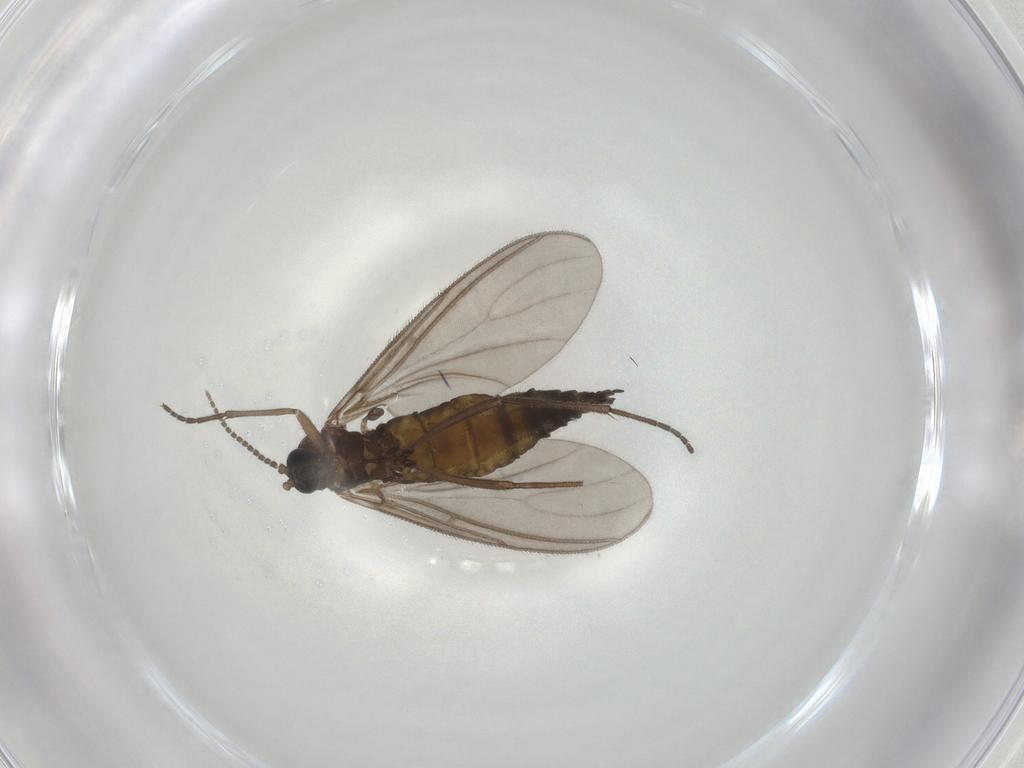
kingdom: Animalia
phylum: Arthropoda
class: Insecta
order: Diptera
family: Sciaridae
